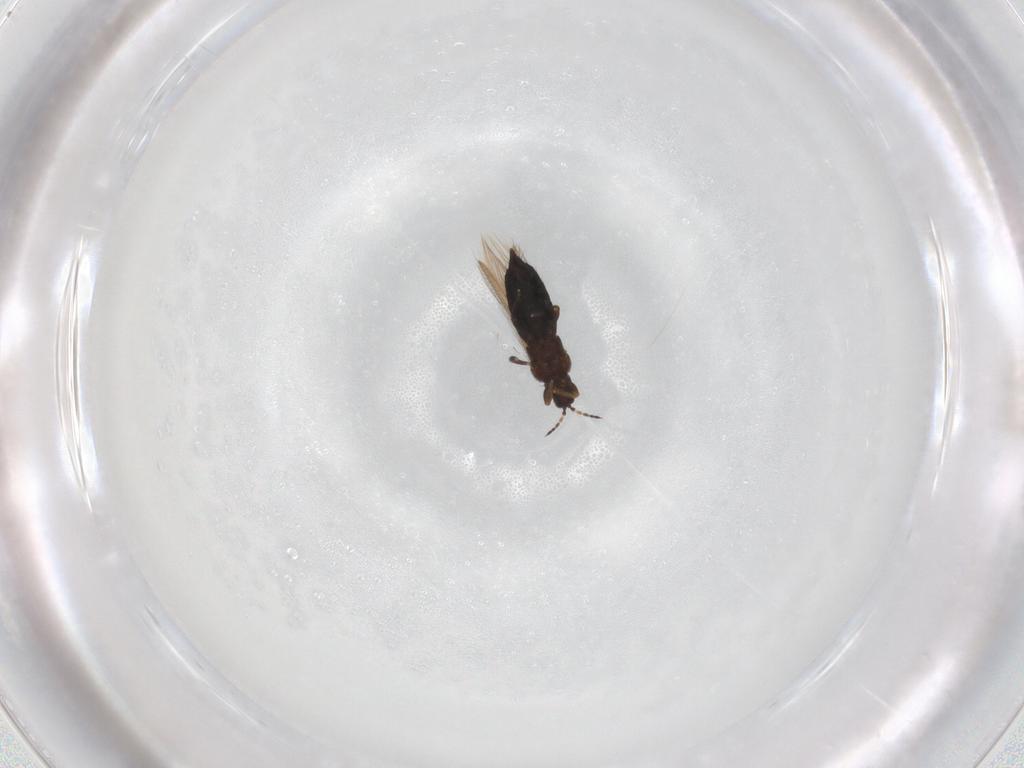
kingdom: Animalia
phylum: Arthropoda
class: Insecta
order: Thysanoptera
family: Thripidae
